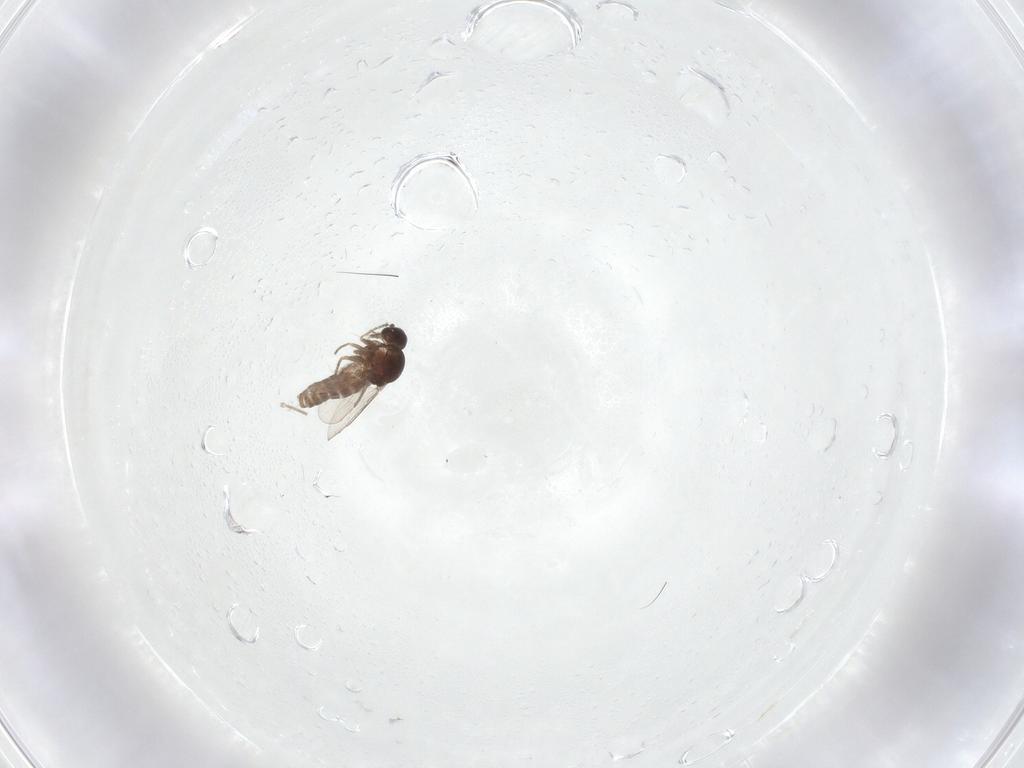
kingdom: Animalia
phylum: Arthropoda
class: Insecta
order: Diptera
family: Ceratopogonidae
